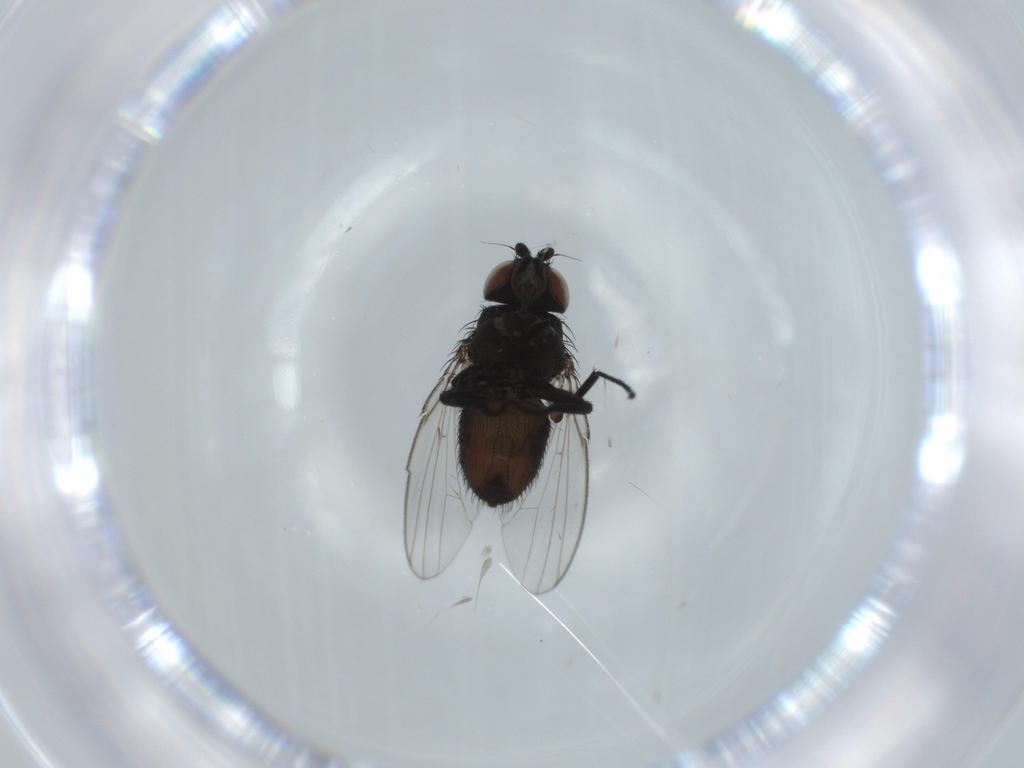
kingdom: Animalia
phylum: Arthropoda
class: Insecta
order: Diptera
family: Milichiidae
